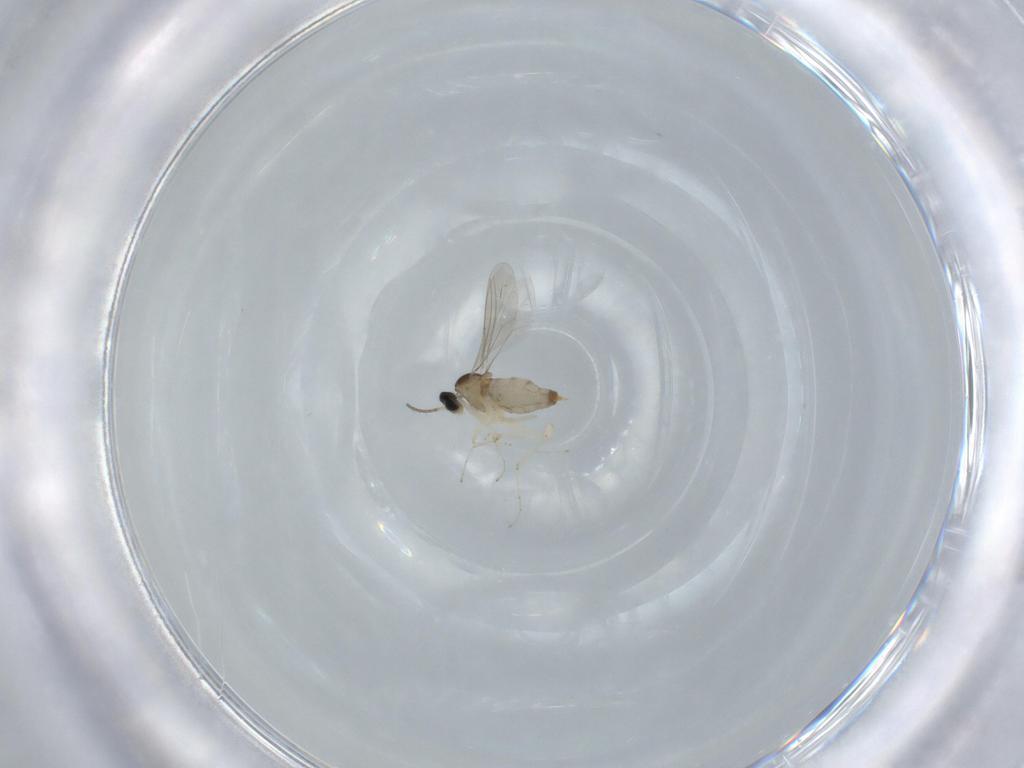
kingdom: Animalia
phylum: Arthropoda
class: Insecta
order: Diptera
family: Cecidomyiidae
